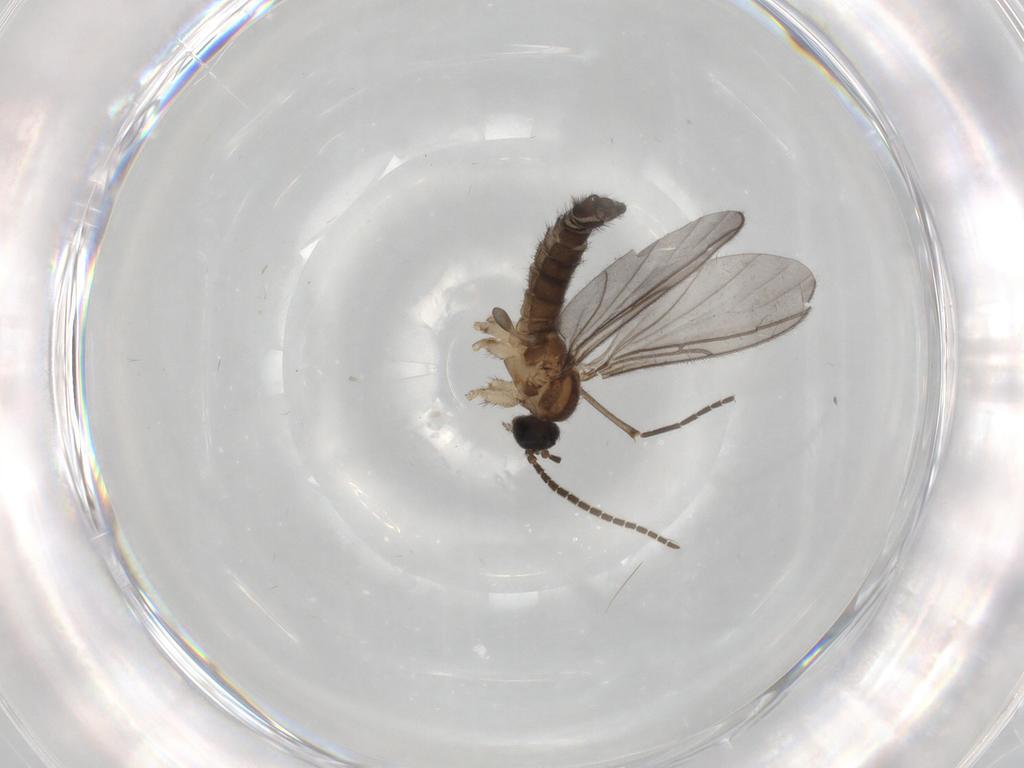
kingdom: Animalia
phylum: Arthropoda
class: Insecta
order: Diptera
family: Sciaridae
